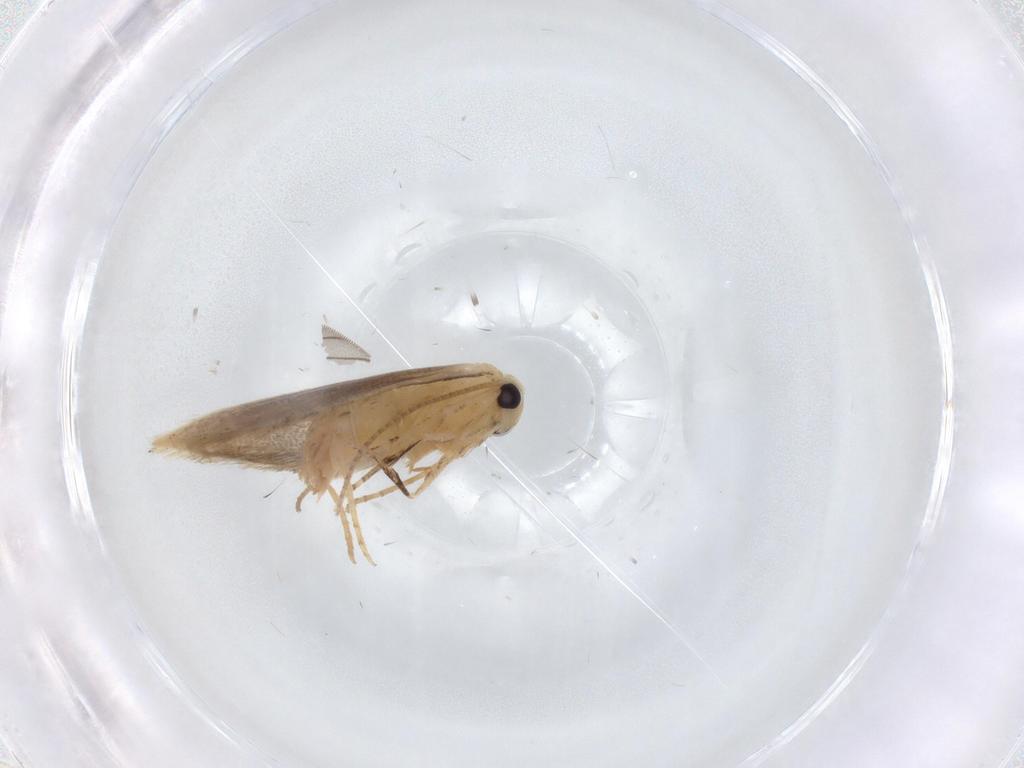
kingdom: Animalia
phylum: Arthropoda
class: Insecta
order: Lepidoptera
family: Bucculatricidae
